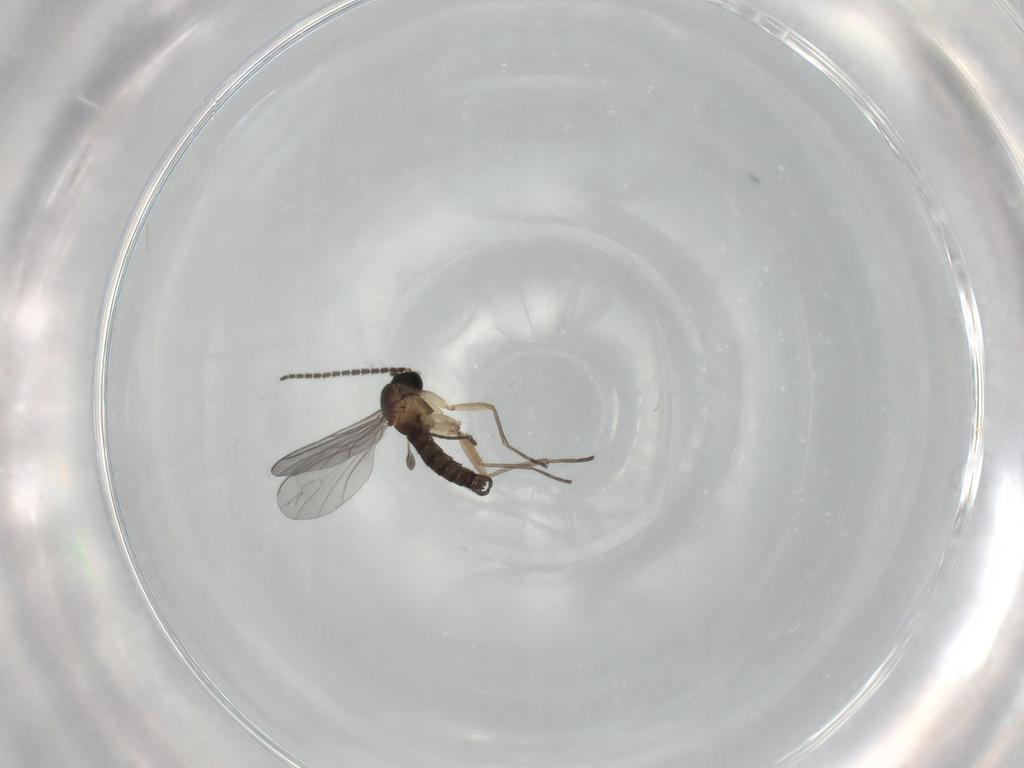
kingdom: Animalia
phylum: Arthropoda
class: Insecta
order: Diptera
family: Sciaridae
